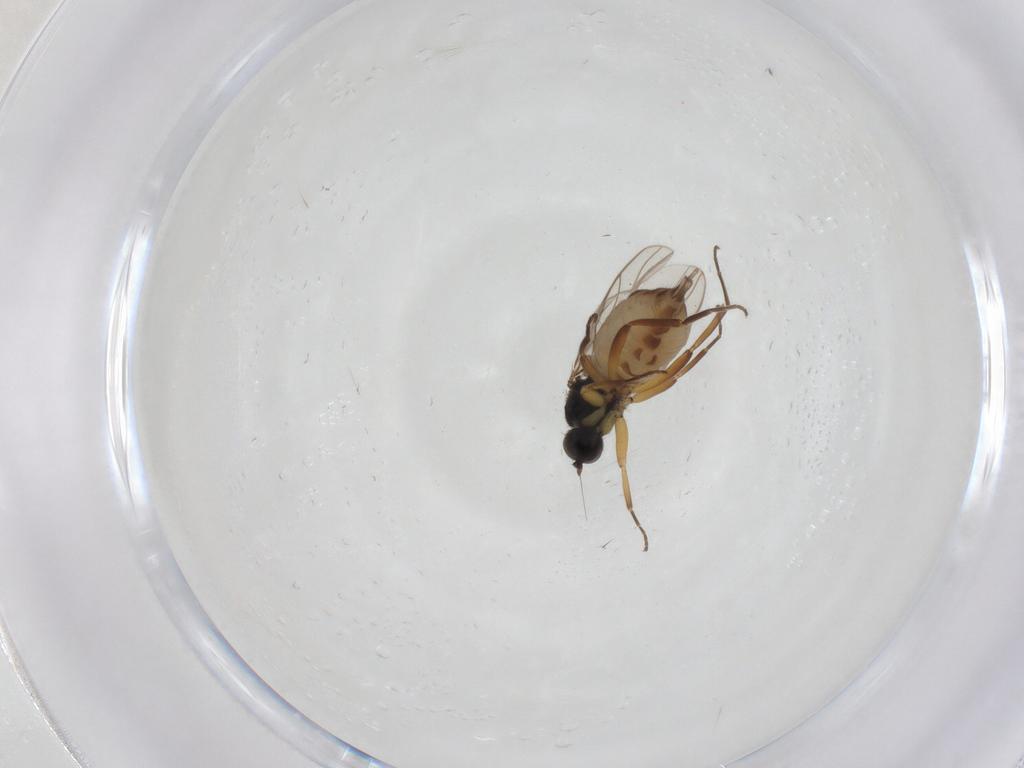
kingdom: Animalia
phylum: Arthropoda
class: Insecta
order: Diptera
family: Hybotidae
